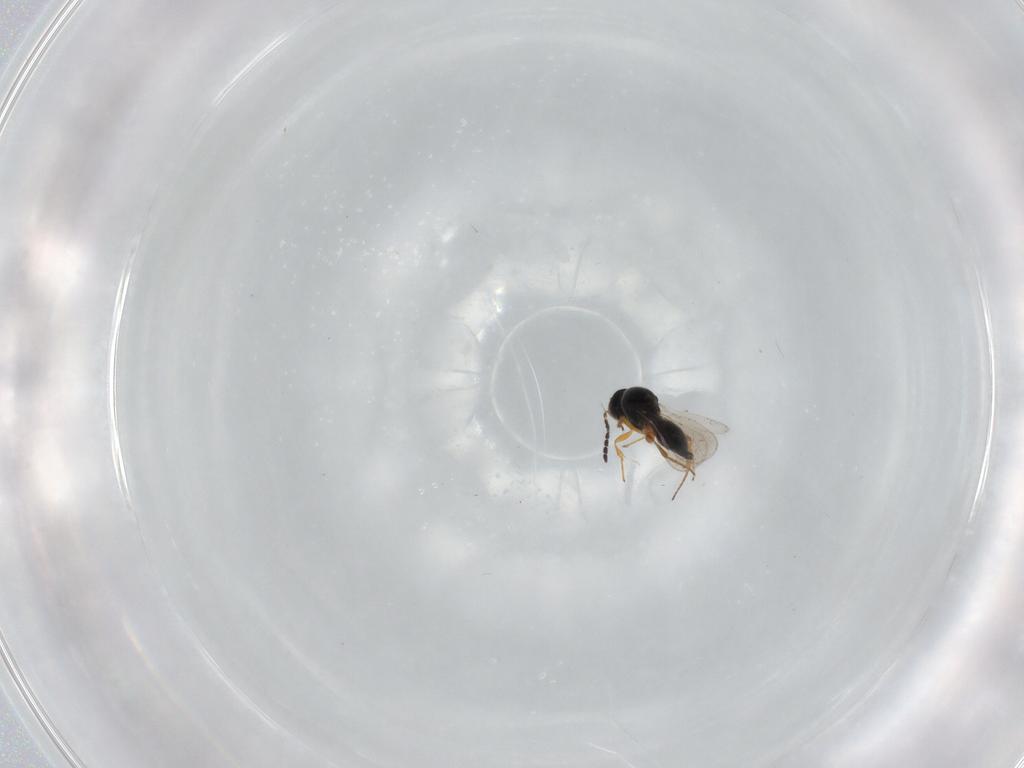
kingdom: Animalia
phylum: Arthropoda
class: Insecta
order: Hymenoptera
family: Platygastridae
